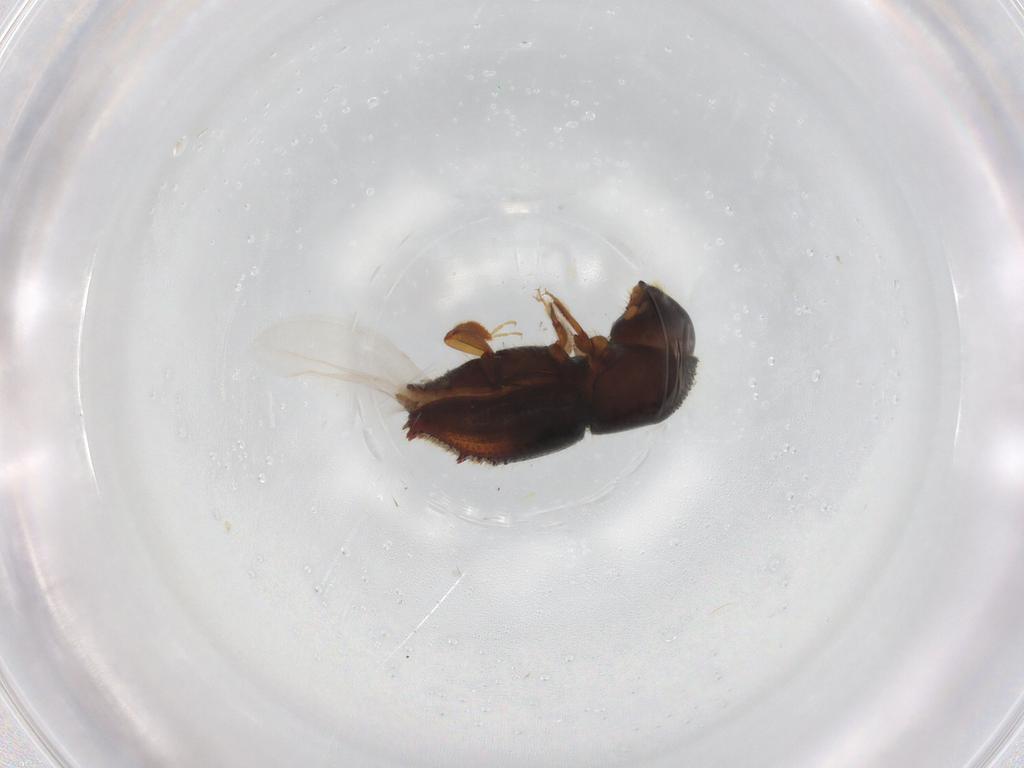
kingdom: Animalia
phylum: Arthropoda
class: Insecta
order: Coleoptera
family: Curculionidae
